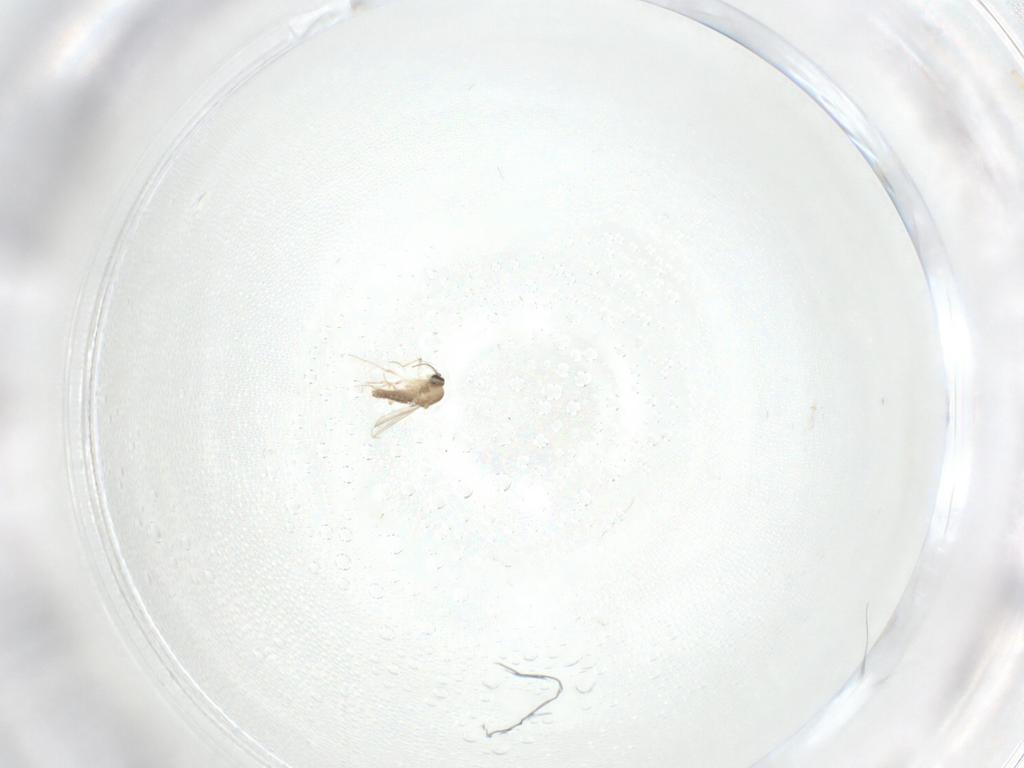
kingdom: Animalia
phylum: Arthropoda
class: Insecta
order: Diptera
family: Ceratopogonidae
